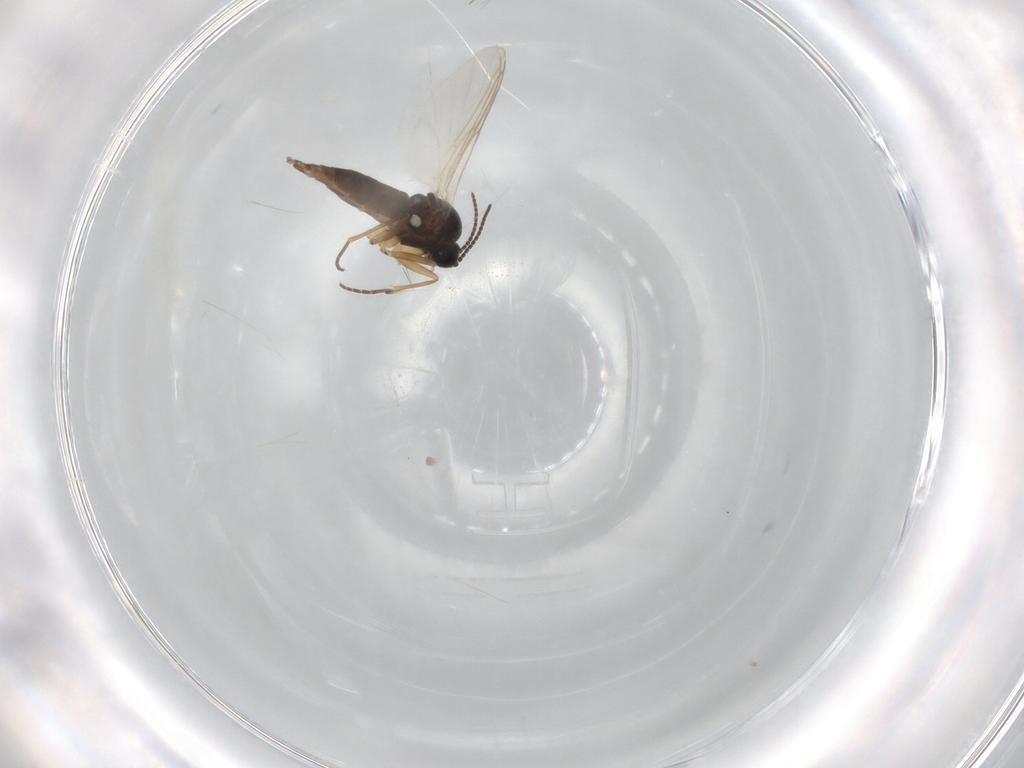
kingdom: Animalia
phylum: Arthropoda
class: Insecta
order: Diptera
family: Sciaridae
